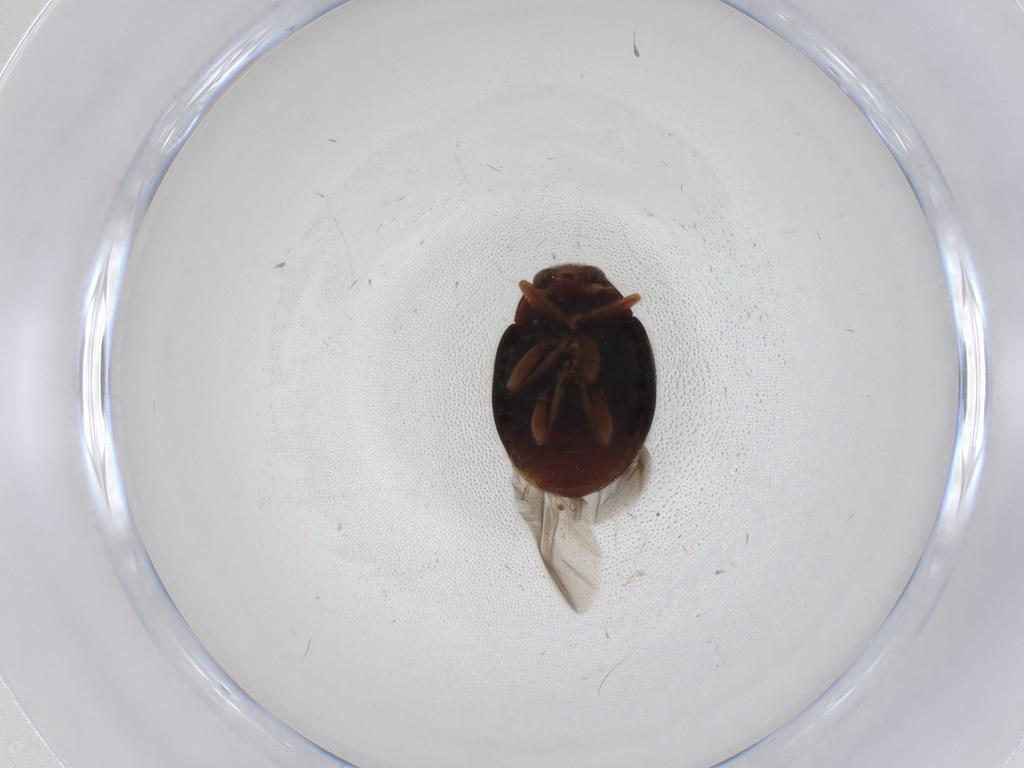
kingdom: Animalia
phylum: Arthropoda
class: Insecta
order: Coleoptera
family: Coccinellidae
